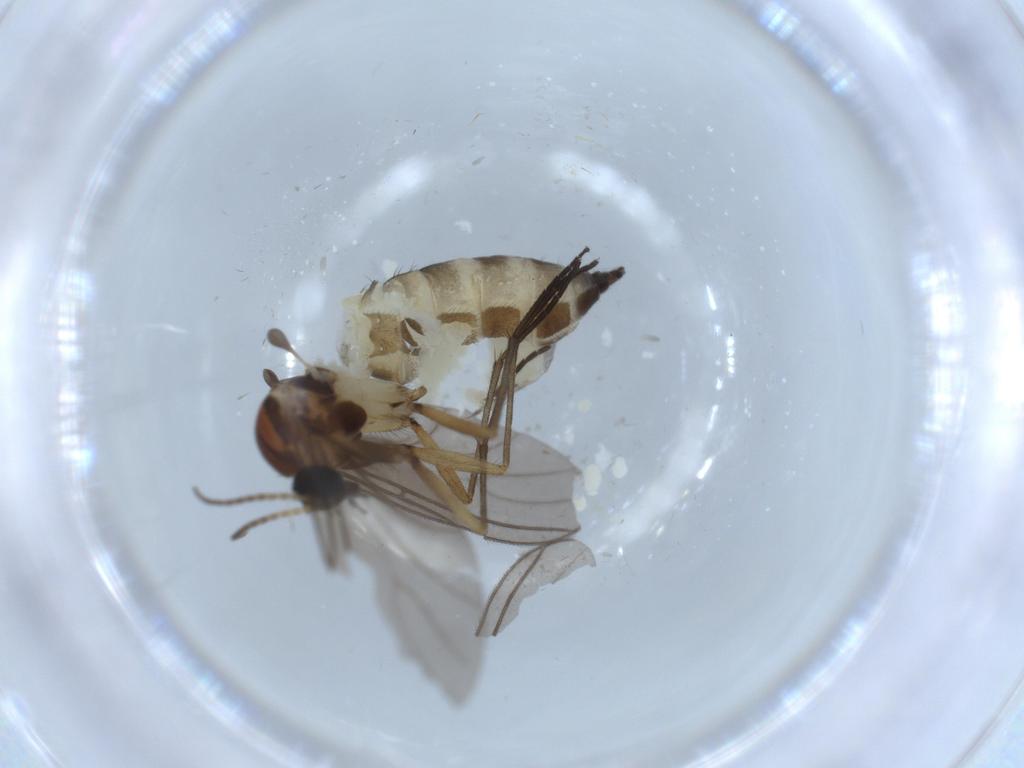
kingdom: Animalia
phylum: Arthropoda
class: Insecta
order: Diptera
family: Sciaridae
